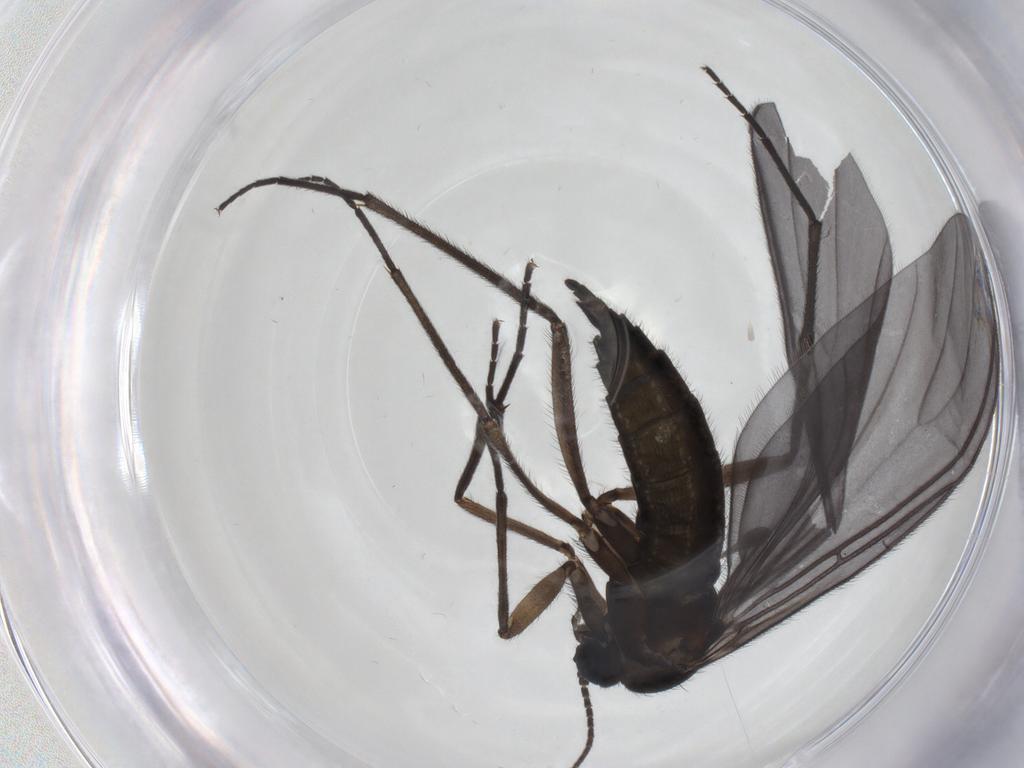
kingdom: Animalia
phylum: Arthropoda
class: Insecta
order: Diptera
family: Sciaridae
